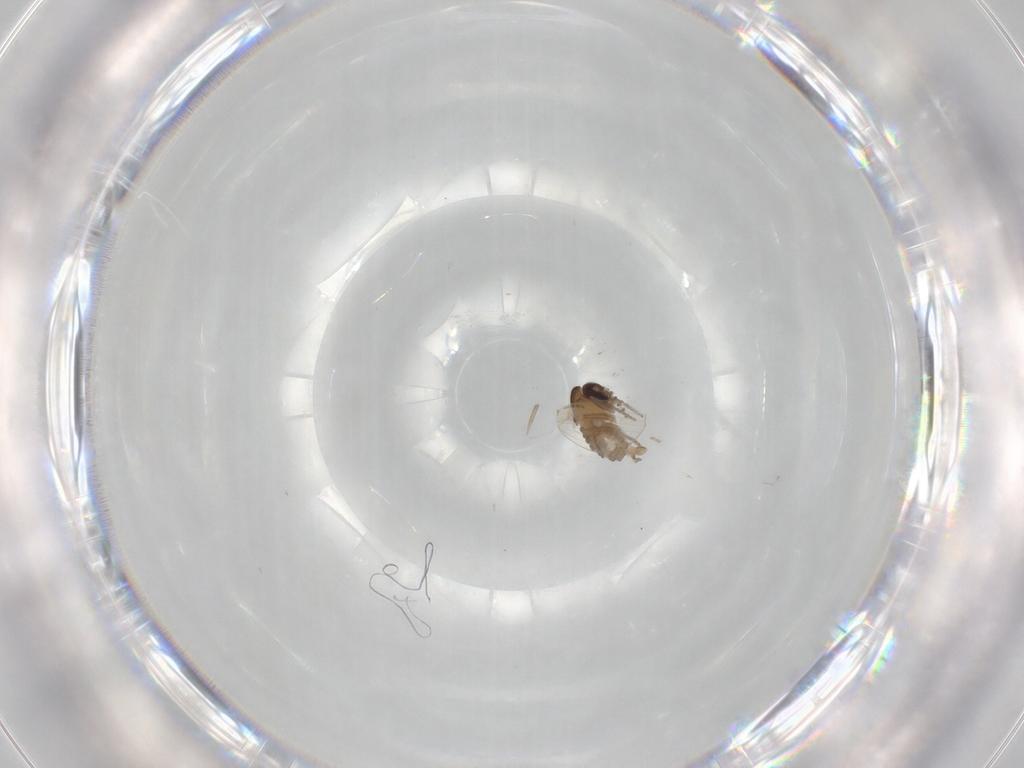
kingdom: Animalia
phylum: Arthropoda
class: Insecta
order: Diptera
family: Psychodidae
